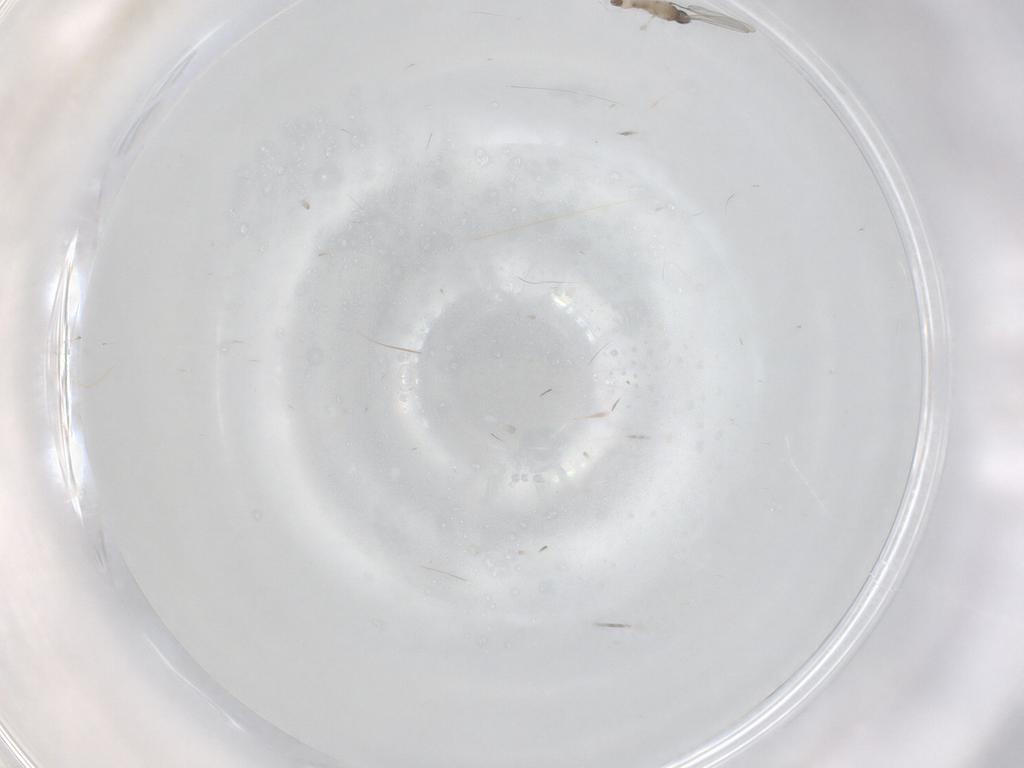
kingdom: Animalia
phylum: Arthropoda
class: Insecta
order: Diptera
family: Cecidomyiidae
